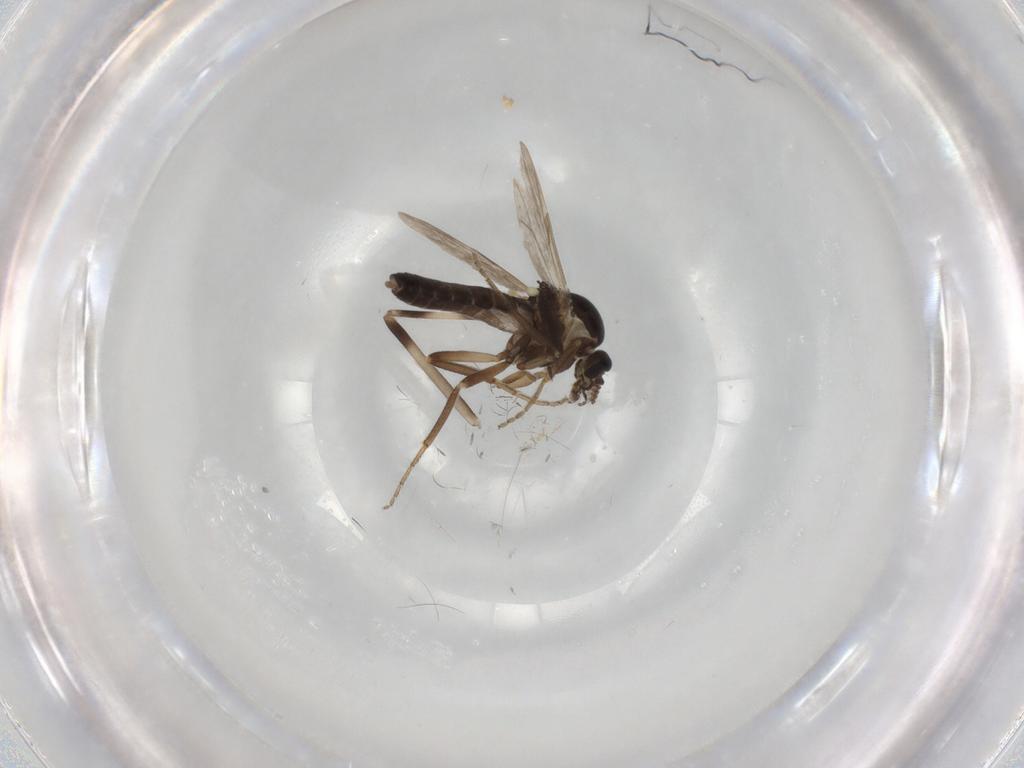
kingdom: Animalia
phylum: Arthropoda
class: Insecta
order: Diptera
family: Ceratopogonidae
